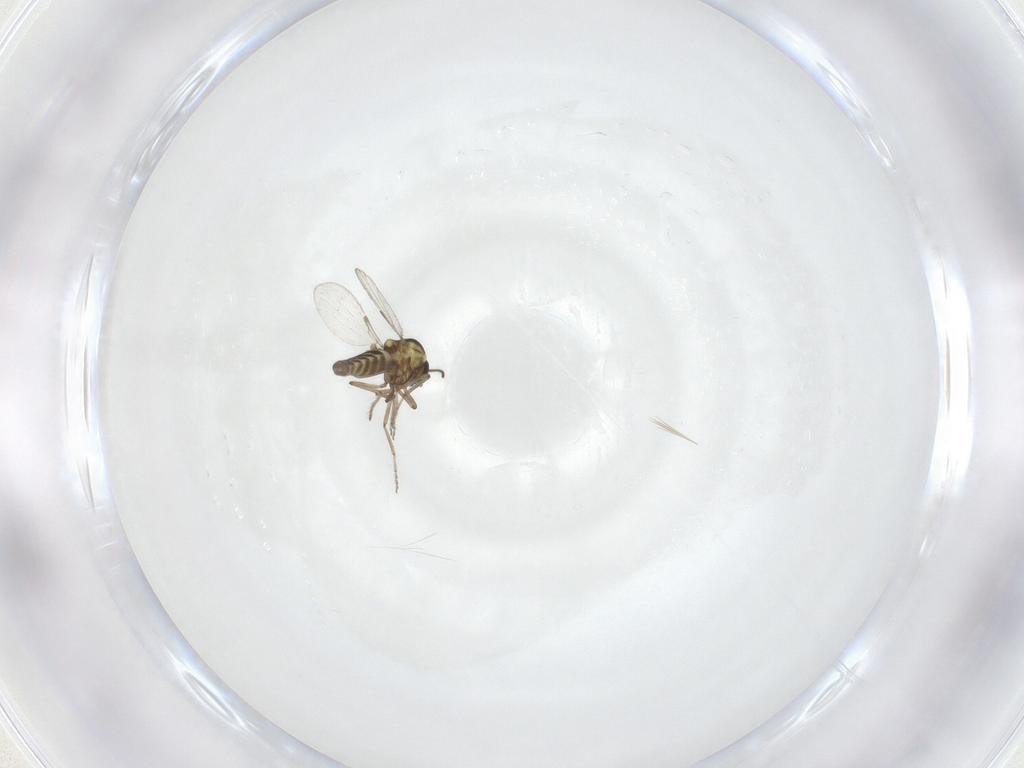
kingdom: Animalia
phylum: Arthropoda
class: Insecta
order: Diptera
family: Ceratopogonidae
